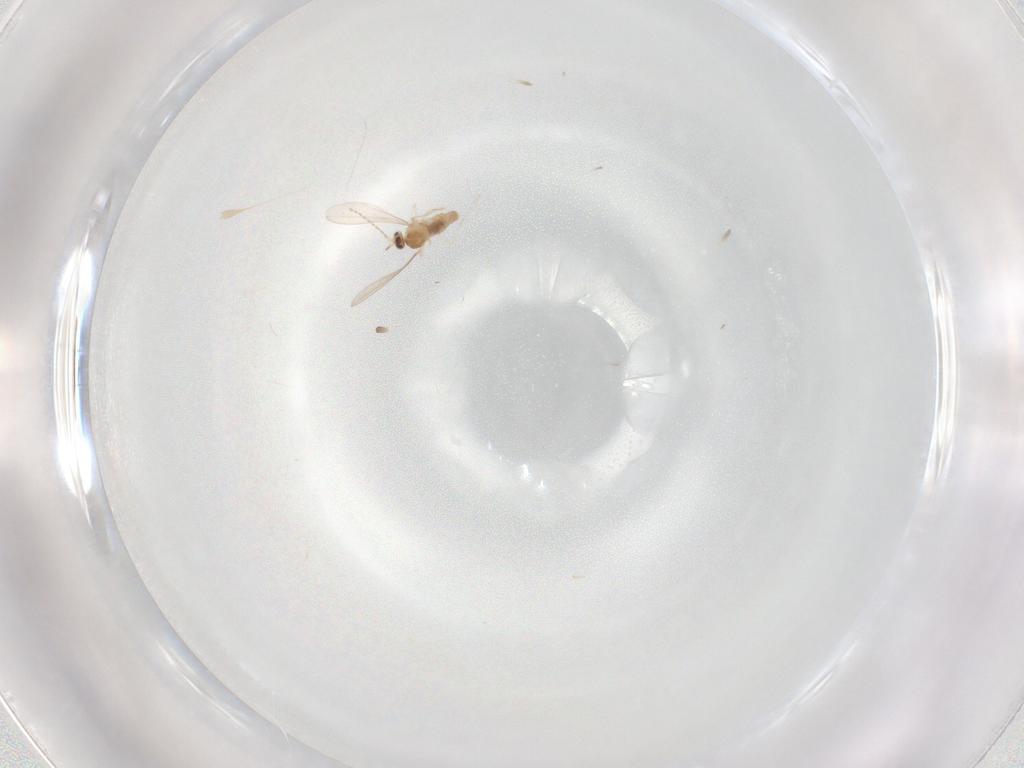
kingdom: Animalia
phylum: Arthropoda
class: Insecta
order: Diptera
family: Cecidomyiidae
